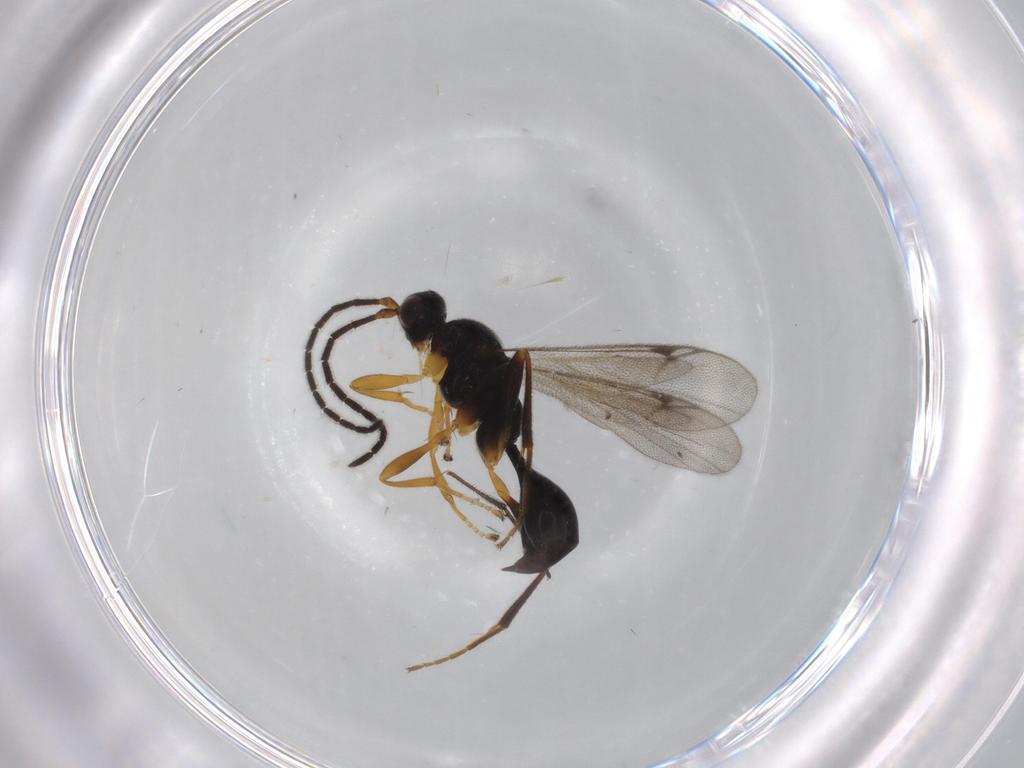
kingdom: Animalia
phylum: Arthropoda
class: Insecta
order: Hymenoptera
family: Proctotrupidae
